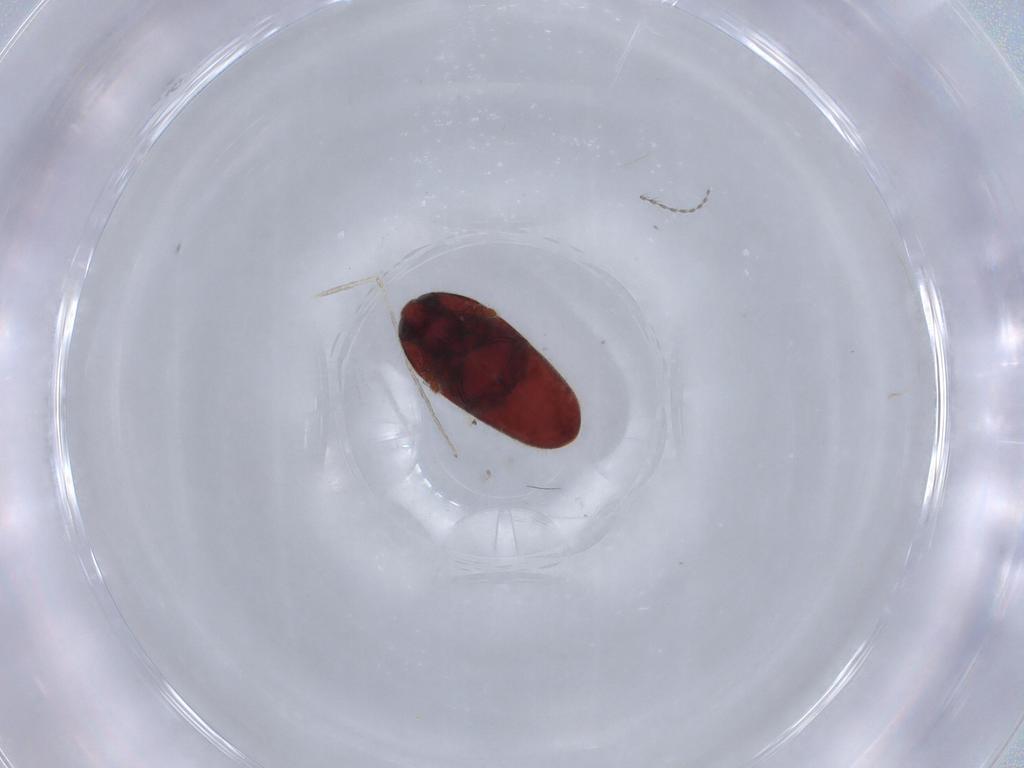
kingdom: Animalia
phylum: Arthropoda
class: Insecta
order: Coleoptera
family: Throscidae
